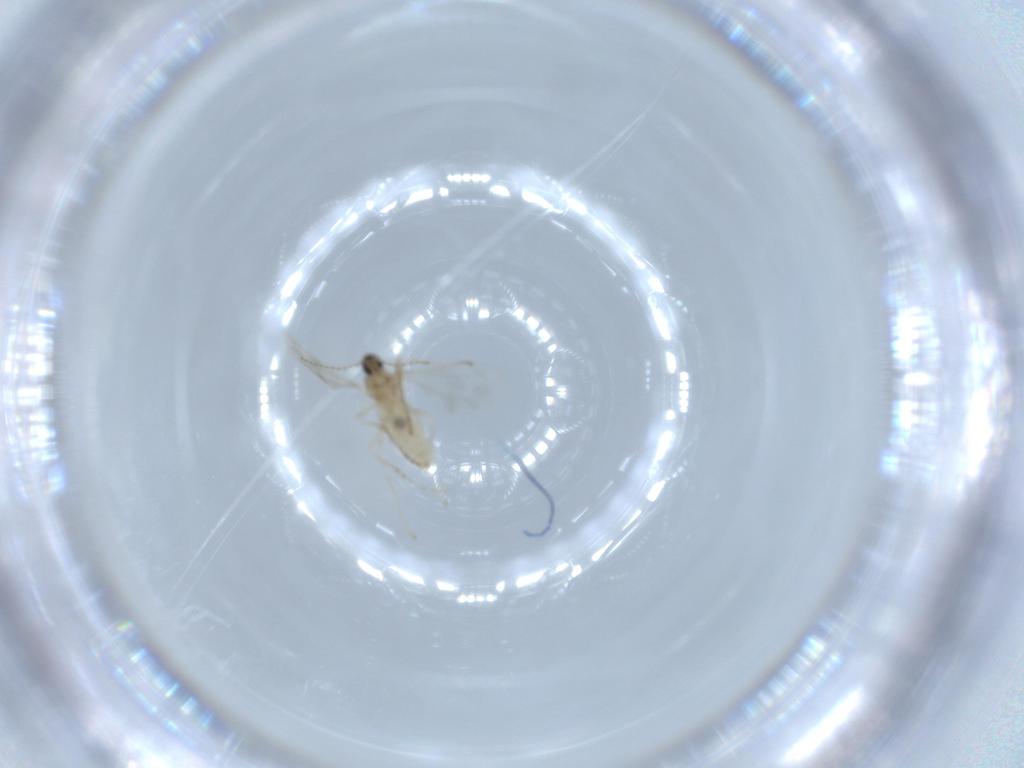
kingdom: Animalia
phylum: Arthropoda
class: Insecta
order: Diptera
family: Cecidomyiidae
